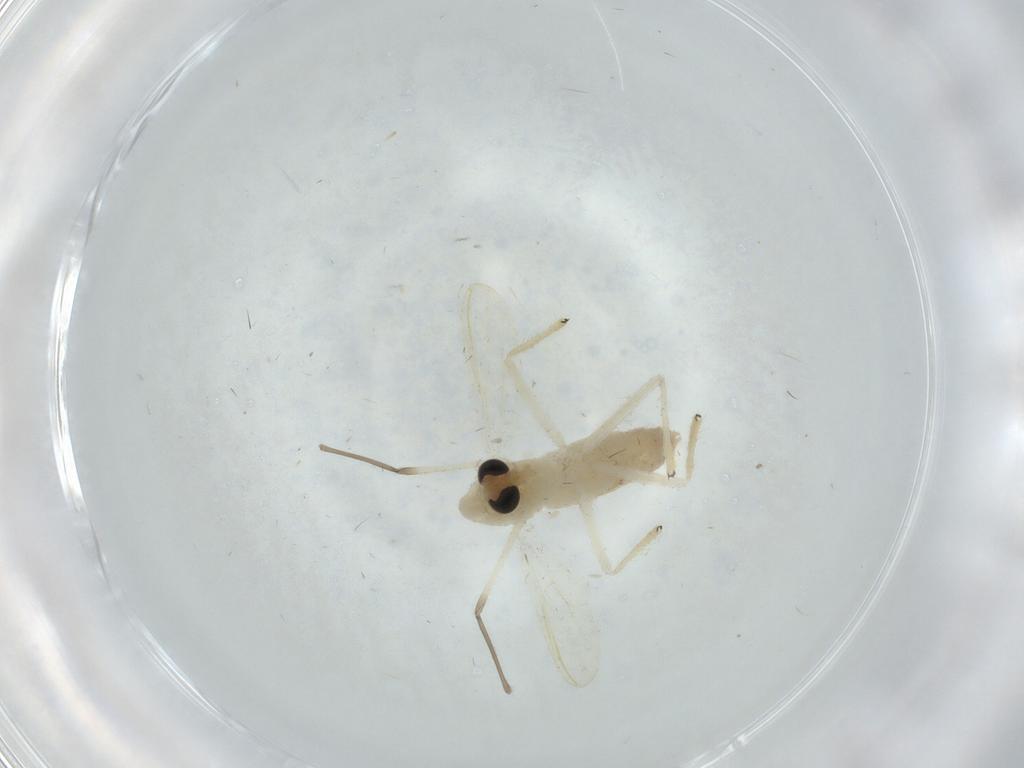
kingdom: Animalia
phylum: Arthropoda
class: Insecta
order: Diptera
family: Chironomidae
